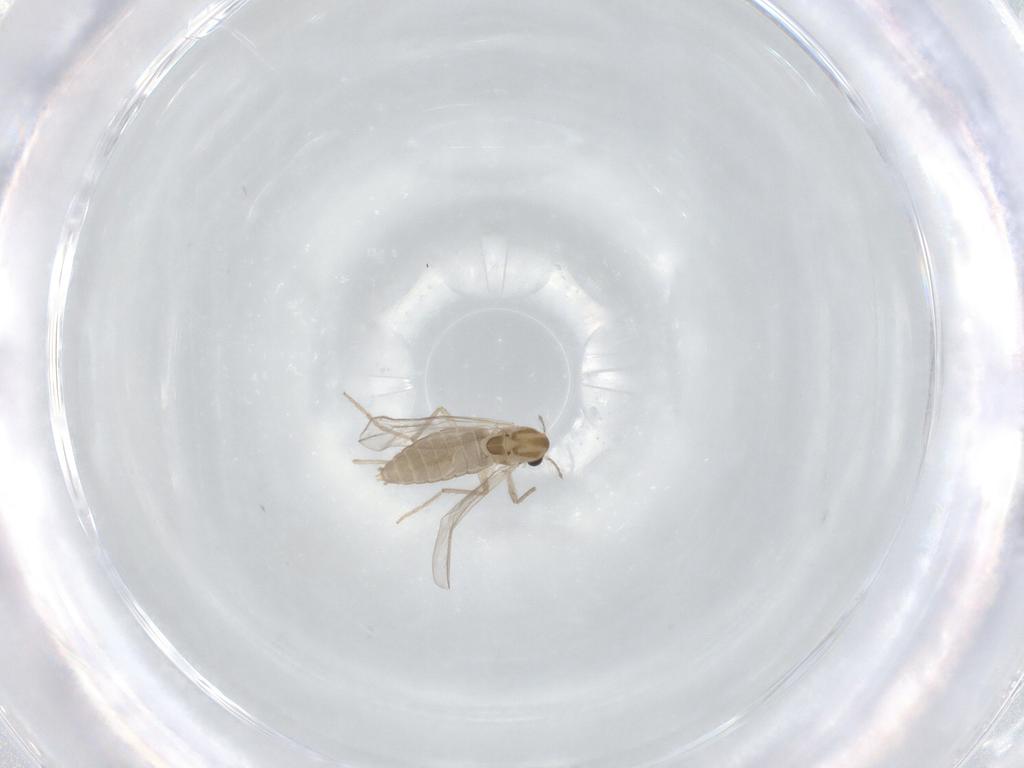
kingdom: Animalia
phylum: Arthropoda
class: Insecta
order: Diptera
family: Chironomidae
